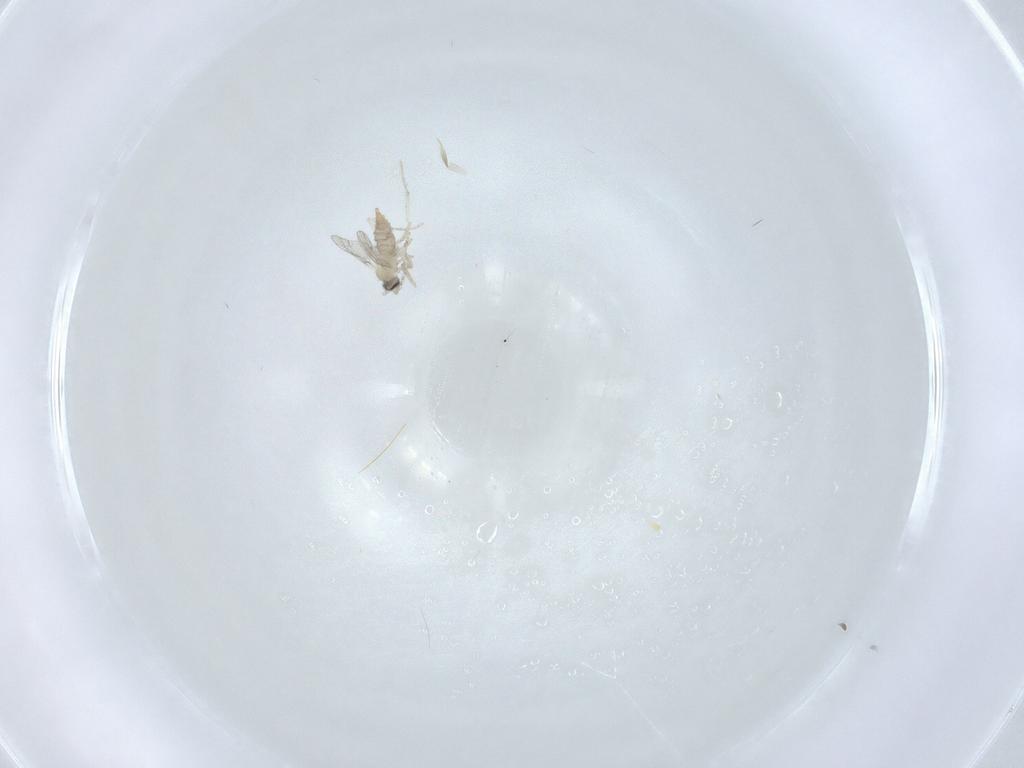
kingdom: Animalia
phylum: Arthropoda
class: Insecta
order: Diptera
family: Cecidomyiidae
